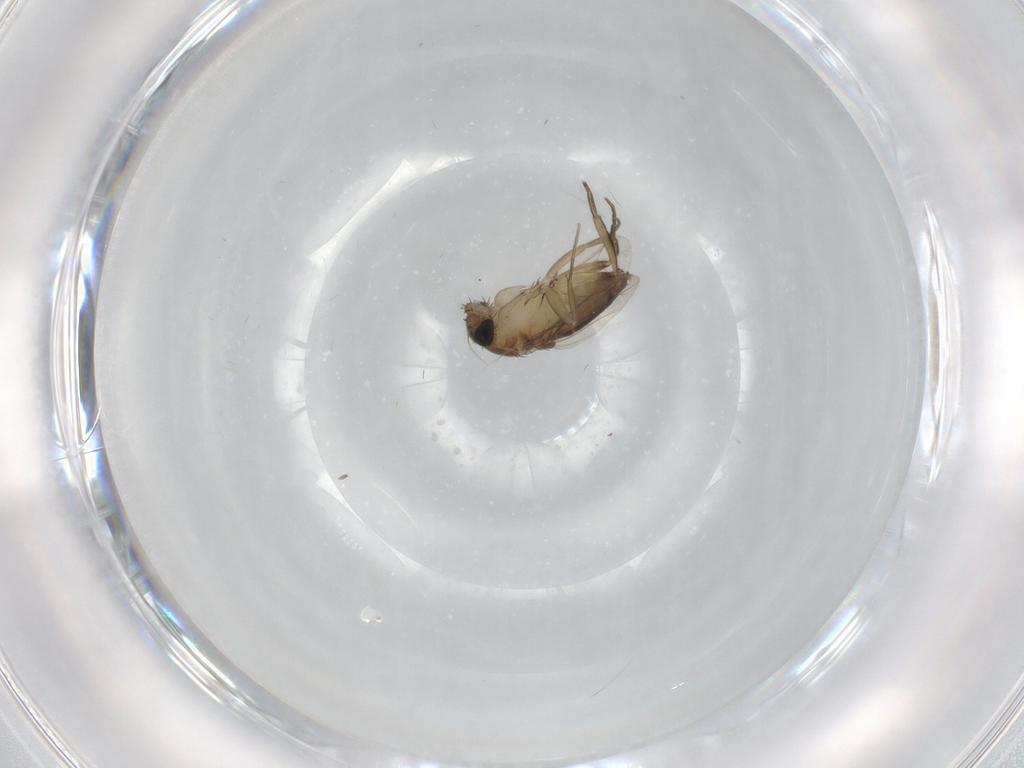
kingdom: Animalia
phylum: Arthropoda
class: Insecta
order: Diptera
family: Phoridae
